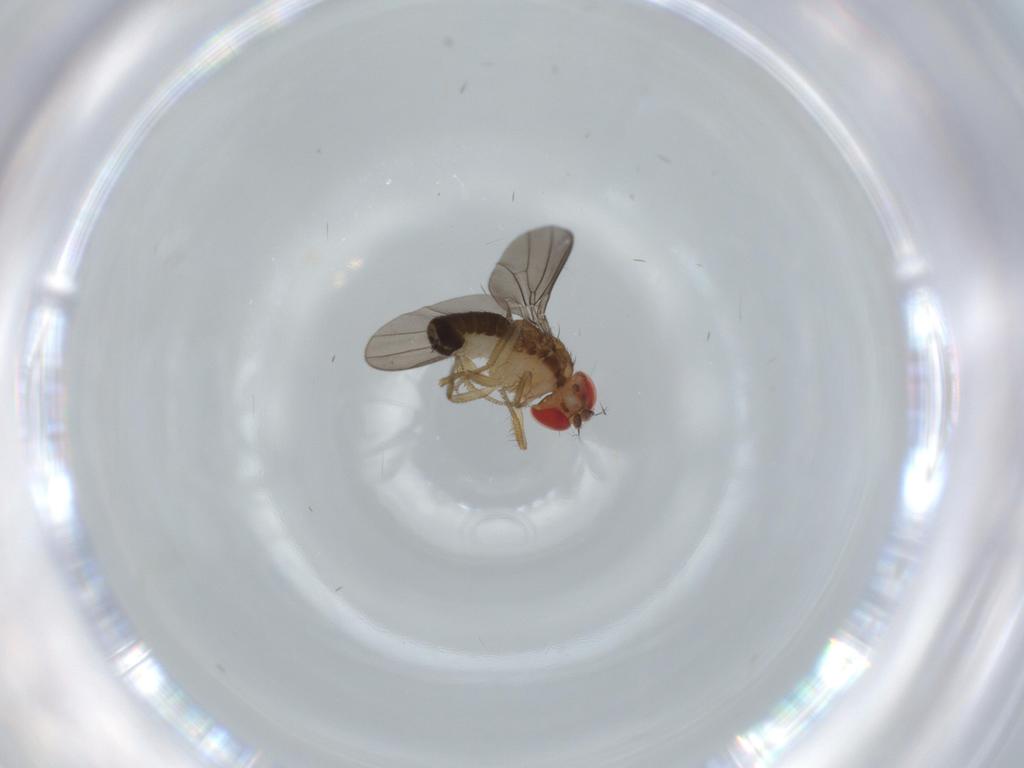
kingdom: Animalia
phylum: Arthropoda
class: Insecta
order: Diptera
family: Drosophilidae
